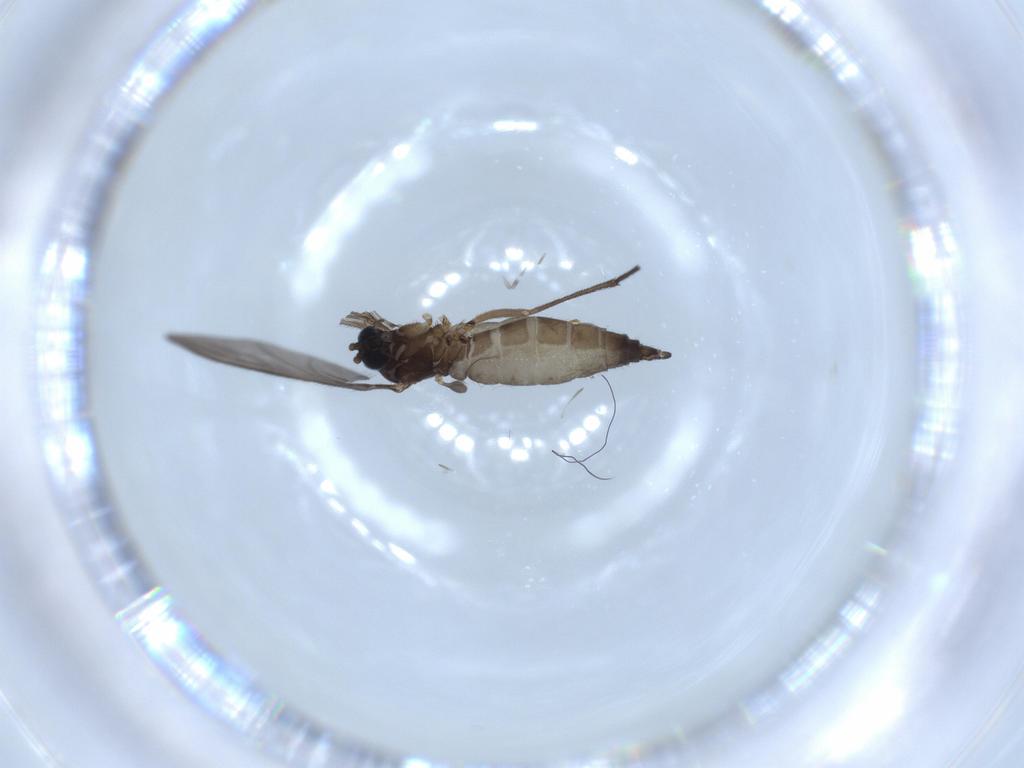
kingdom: Animalia
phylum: Arthropoda
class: Insecta
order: Diptera
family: Sciaridae
